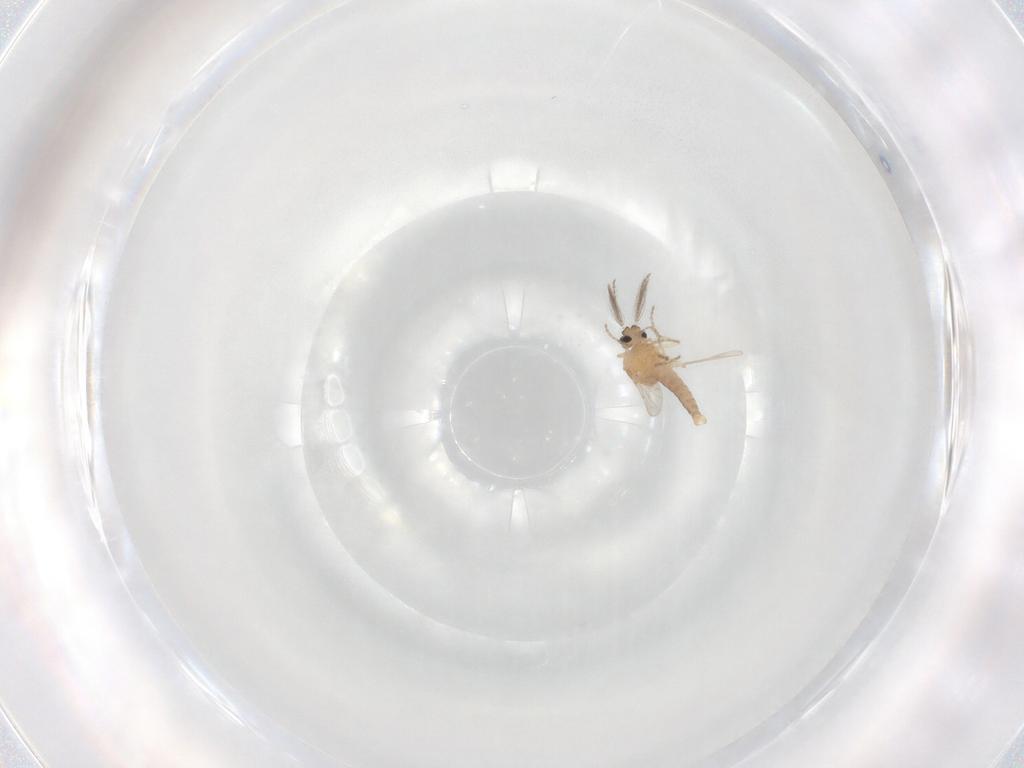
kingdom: Animalia
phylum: Arthropoda
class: Insecta
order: Diptera
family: Ceratopogonidae
